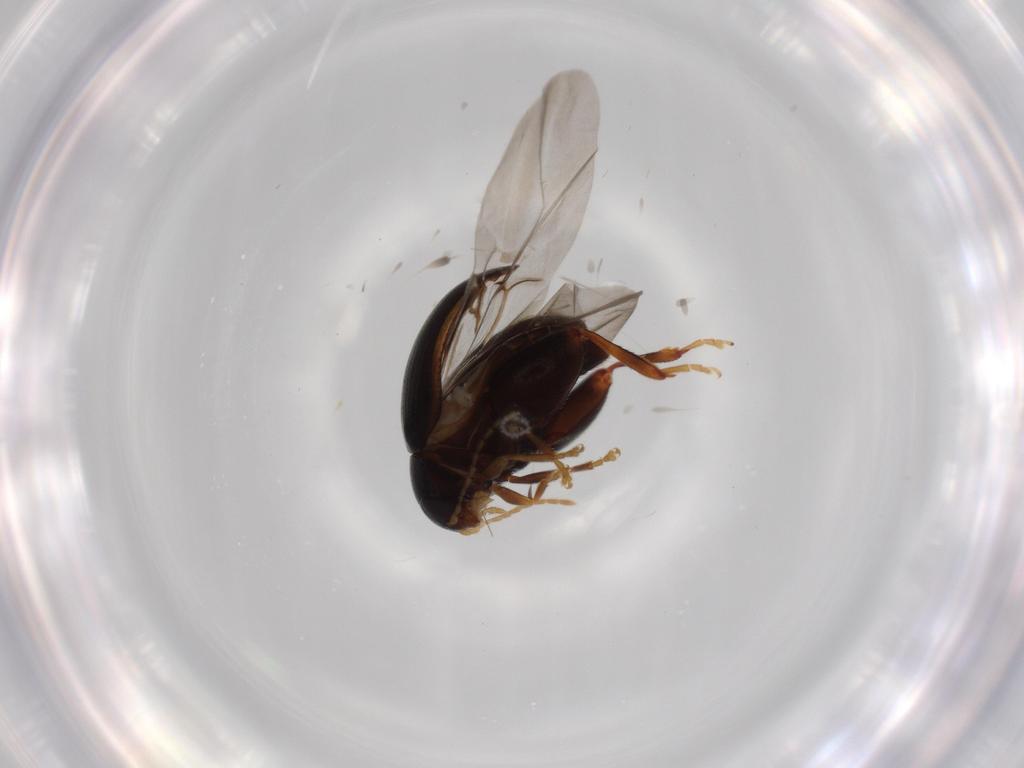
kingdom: Animalia
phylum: Arthropoda
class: Insecta
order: Coleoptera
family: Chrysomelidae
